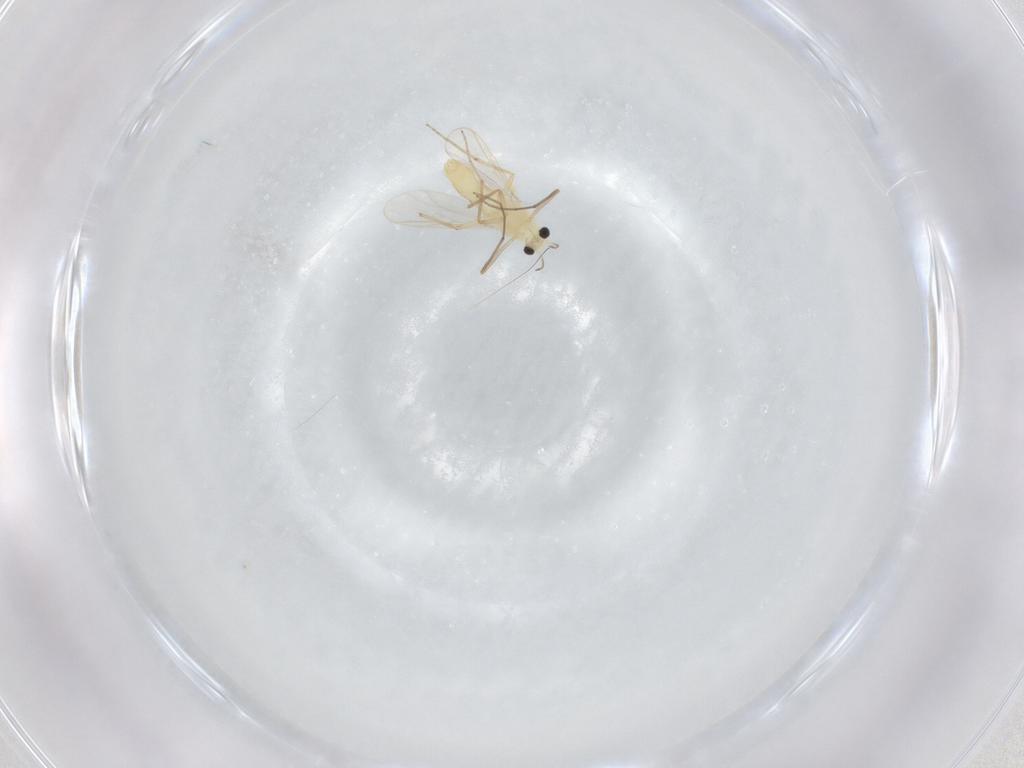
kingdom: Animalia
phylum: Arthropoda
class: Insecta
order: Diptera
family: Chironomidae
